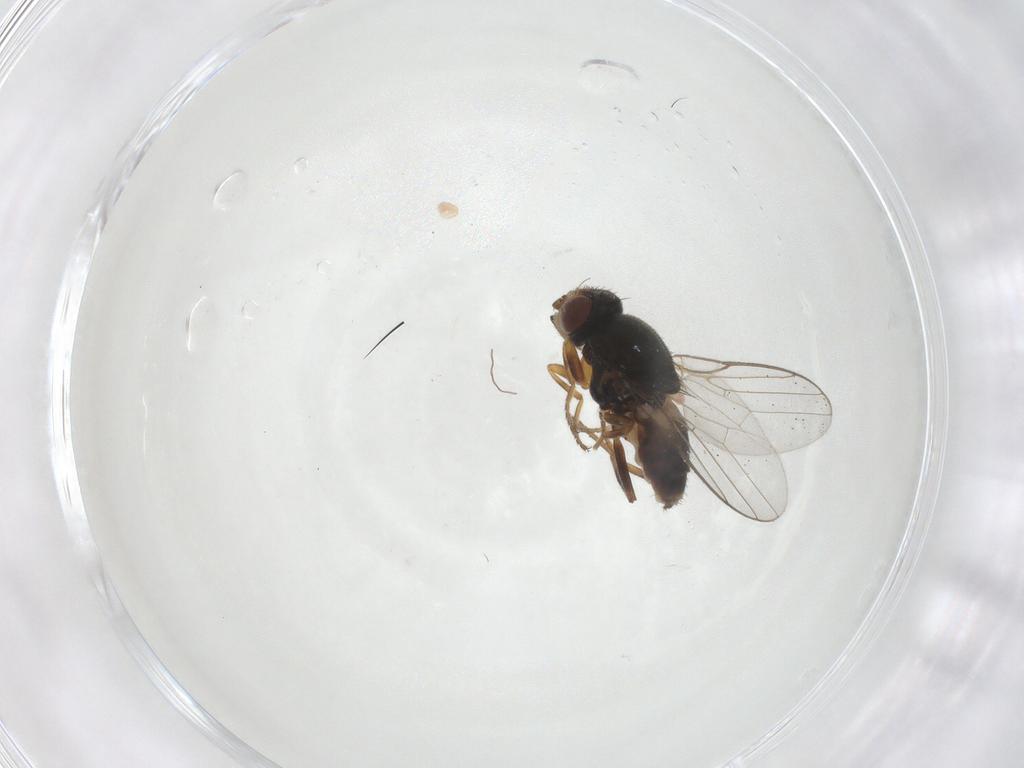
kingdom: Animalia
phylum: Arthropoda
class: Insecta
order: Diptera
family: Chloropidae
